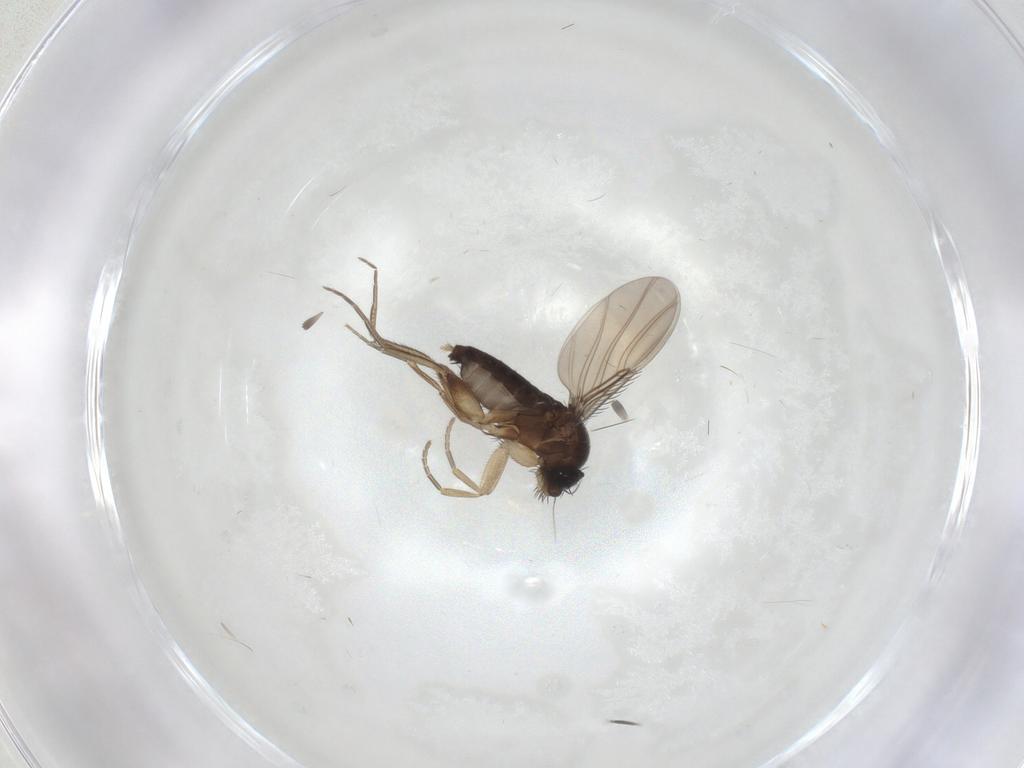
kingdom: Animalia
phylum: Arthropoda
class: Insecta
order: Diptera
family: Phoridae
